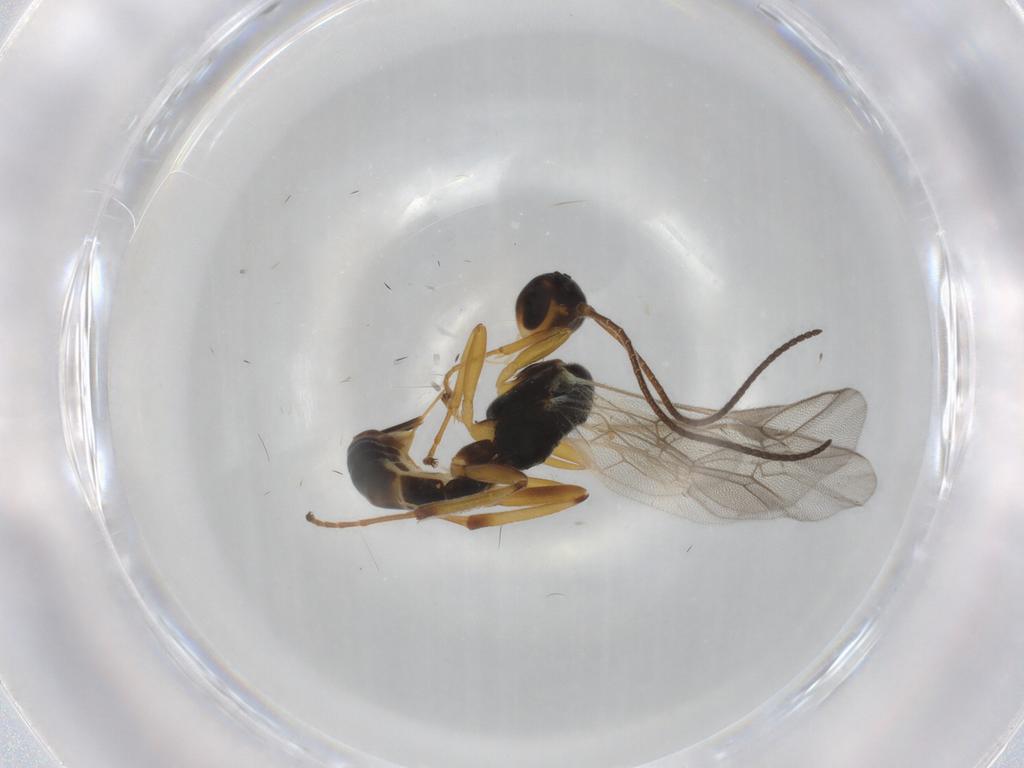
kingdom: Animalia
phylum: Arthropoda
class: Insecta
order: Hymenoptera
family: Ichneumonidae
